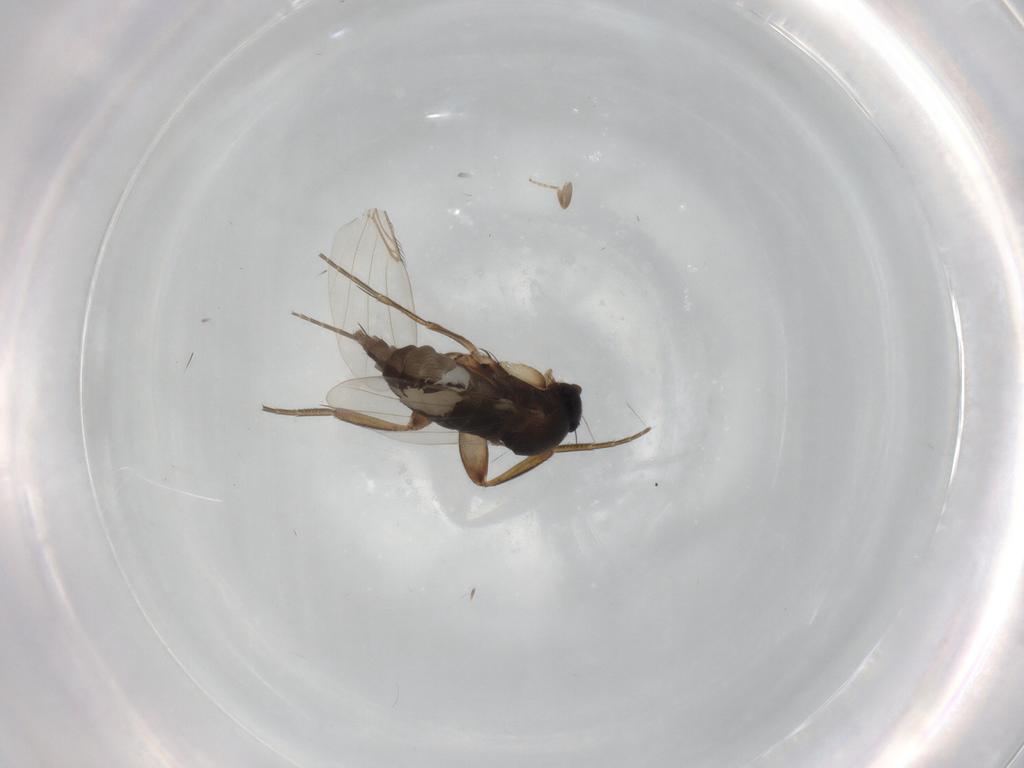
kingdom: Animalia
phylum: Arthropoda
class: Insecta
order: Diptera
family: Phoridae
